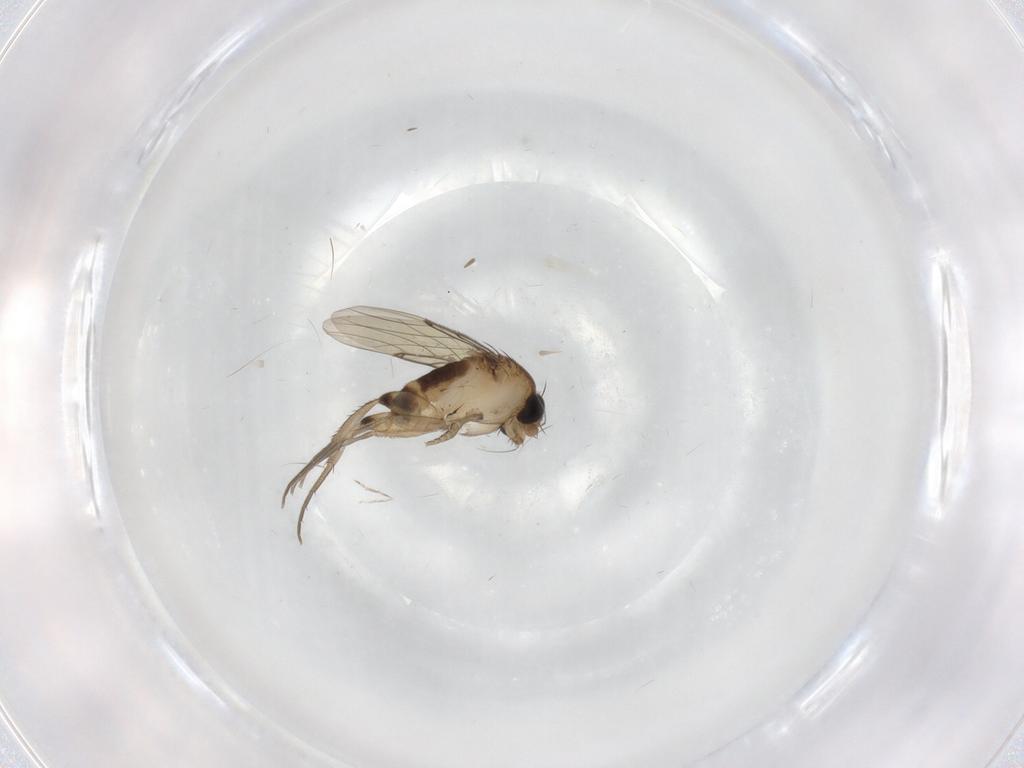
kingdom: Animalia
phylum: Arthropoda
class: Insecta
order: Diptera
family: Phoridae
